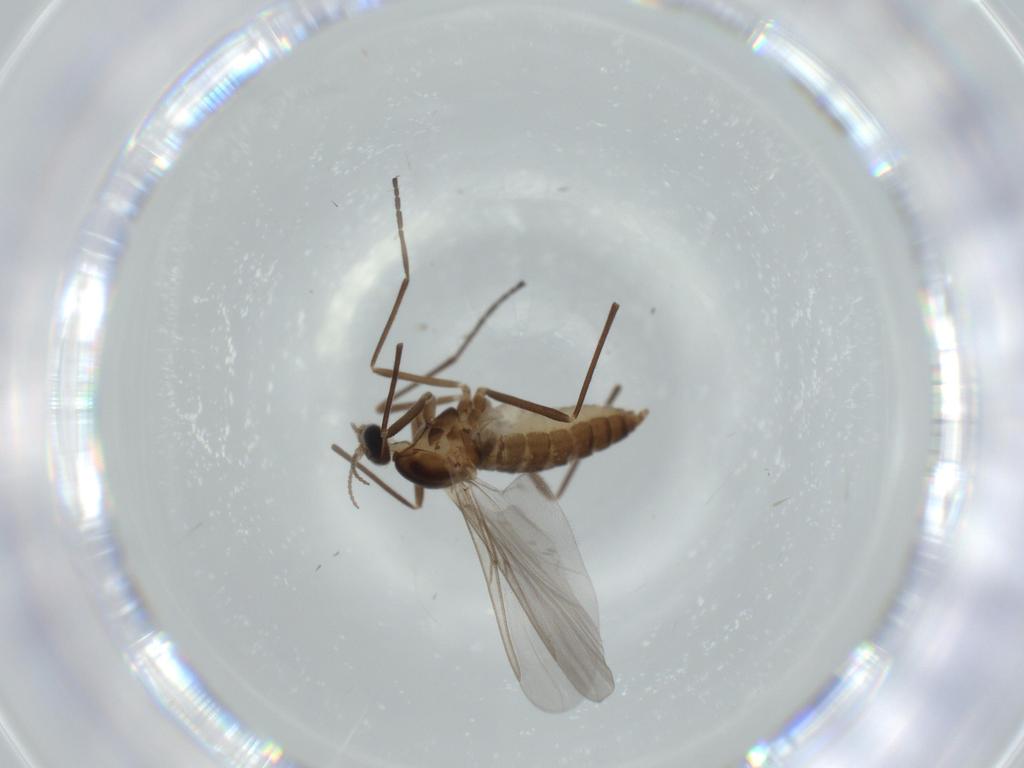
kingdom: Animalia
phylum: Arthropoda
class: Insecta
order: Diptera
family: Cecidomyiidae
